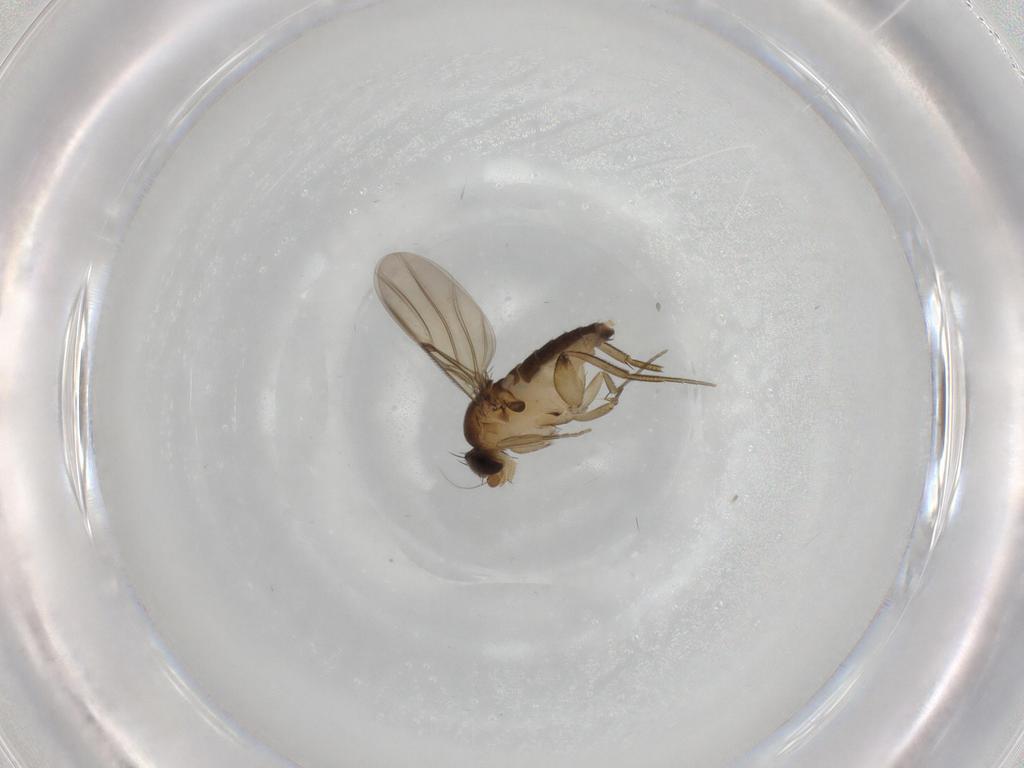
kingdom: Animalia
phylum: Arthropoda
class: Insecta
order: Diptera
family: Phoridae
